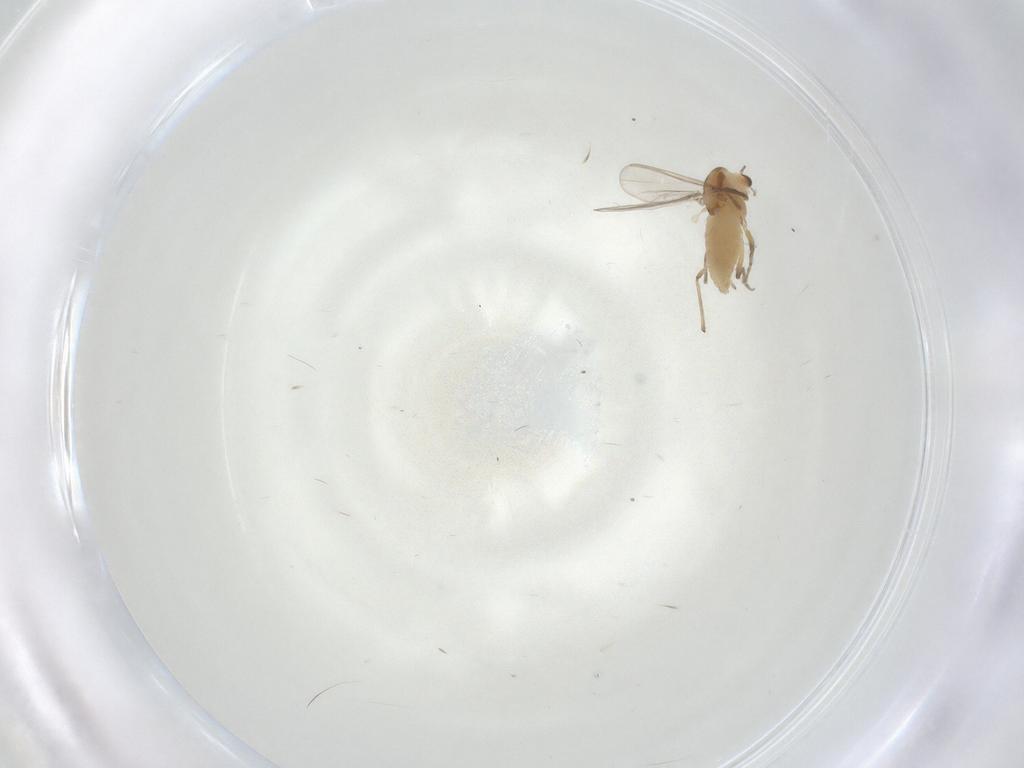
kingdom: Animalia
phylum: Arthropoda
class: Insecta
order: Diptera
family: Chironomidae
